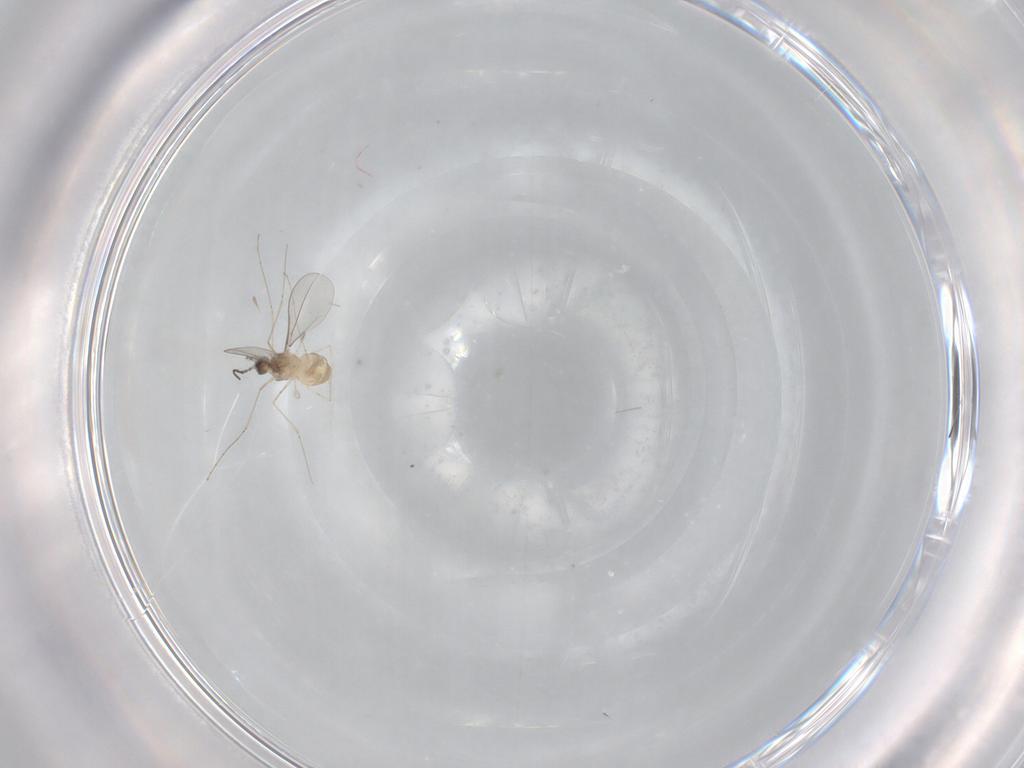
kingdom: Animalia
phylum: Arthropoda
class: Insecta
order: Diptera
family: Cecidomyiidae
